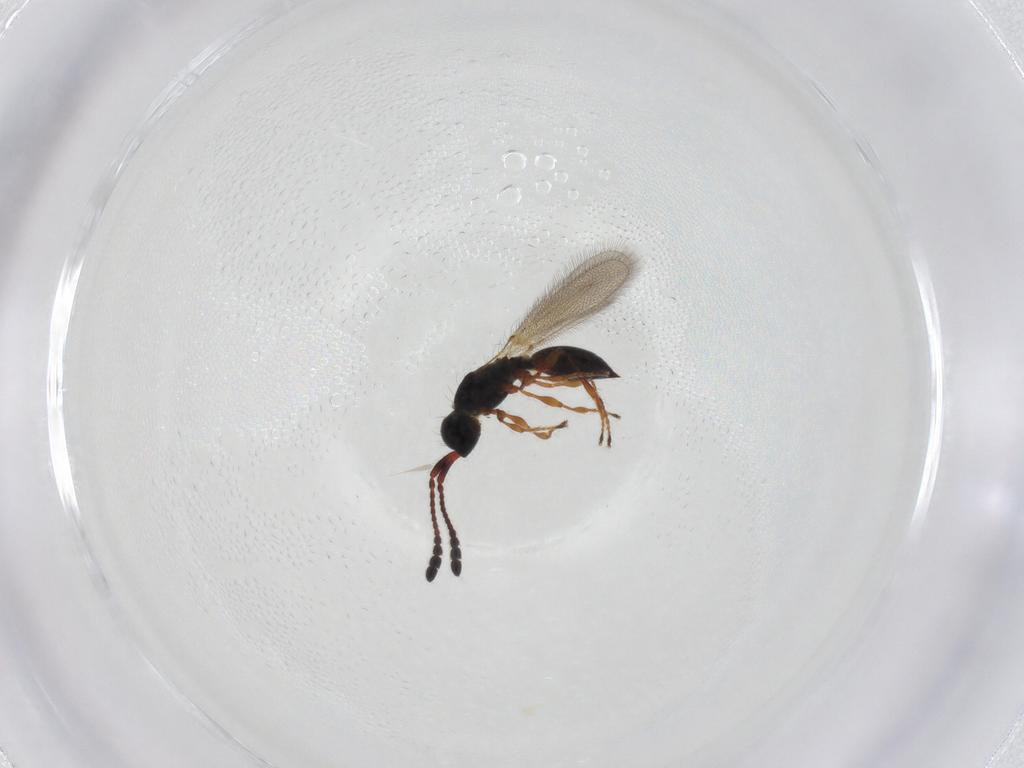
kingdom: Animalia
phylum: Arthropoda
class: Insecta
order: Hymenoptera
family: Diapriidae
